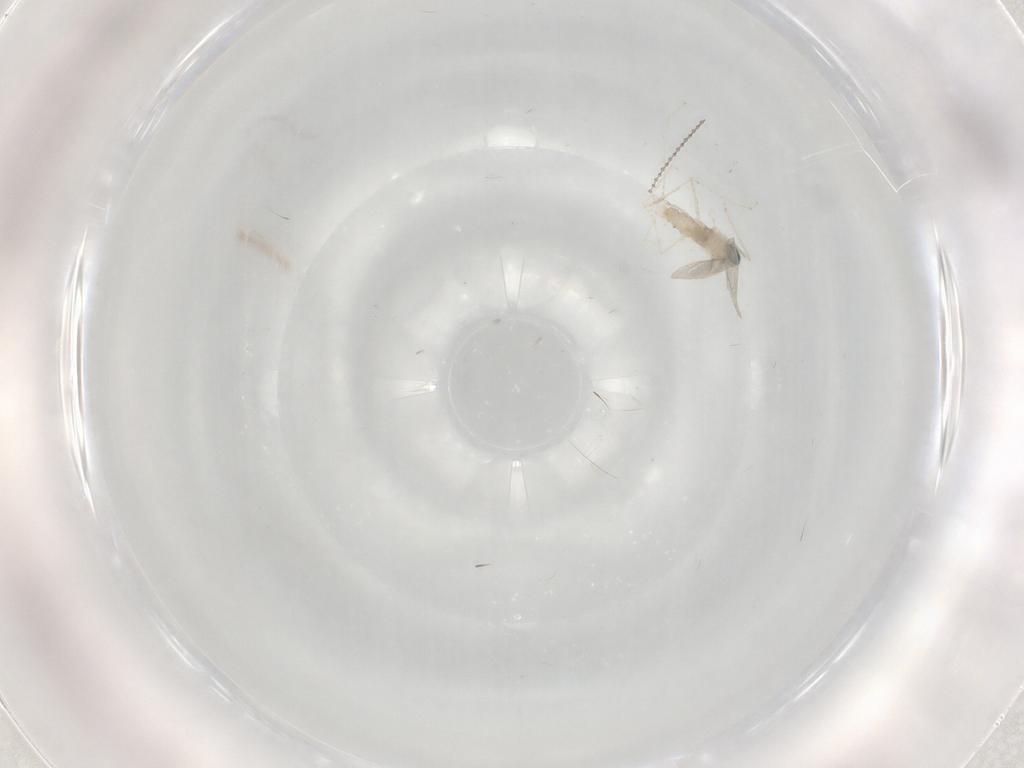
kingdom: Animalia
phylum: Arthropoda
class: Insecta
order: Diptera
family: Cecidomyiidae
